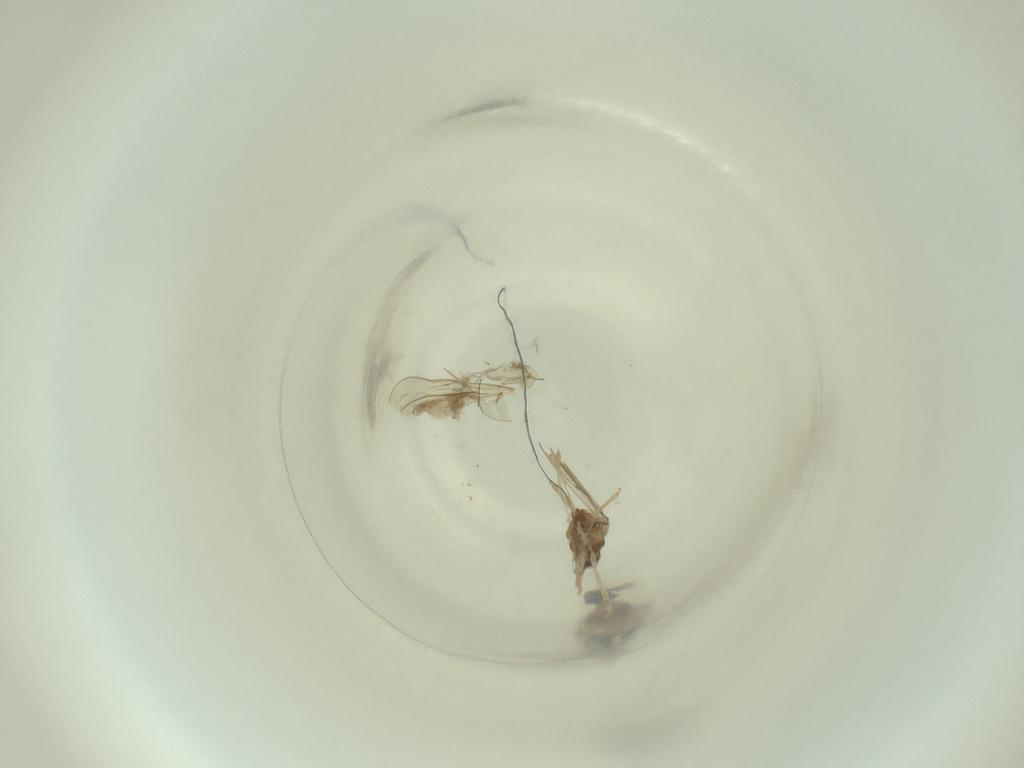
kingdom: Animalia
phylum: Arthropoda
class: Insecta
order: Diptera
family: Cecidomyiidae
